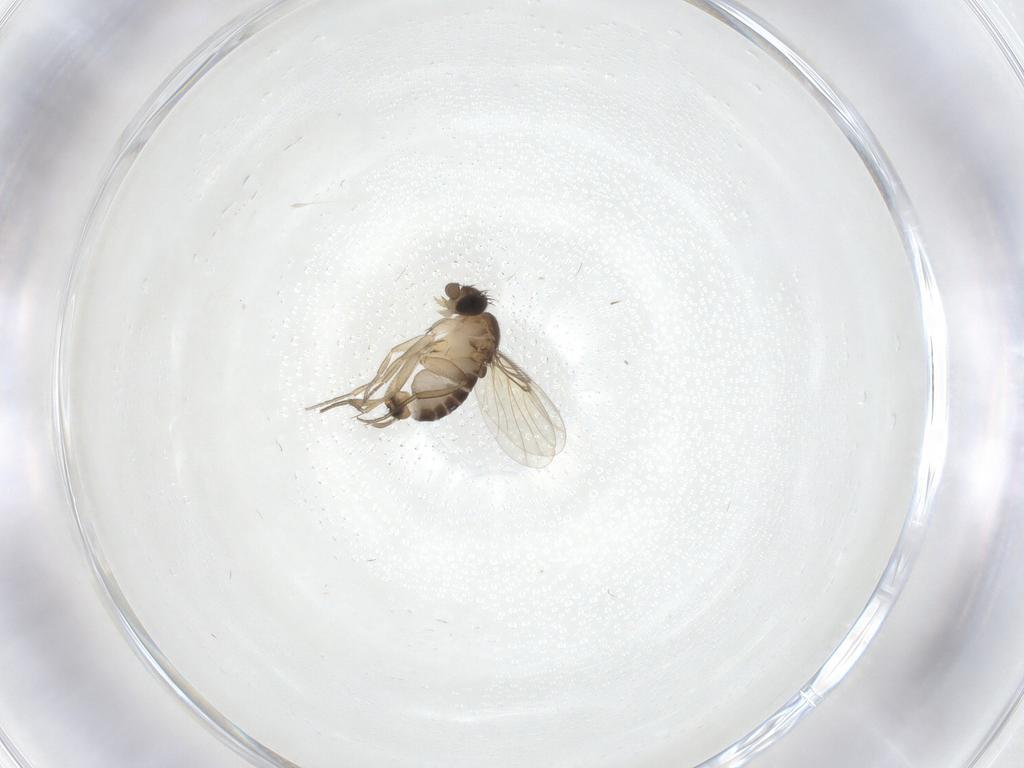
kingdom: Animalia
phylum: Arthropoda
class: Insecta
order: Diptera
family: Phoridae
